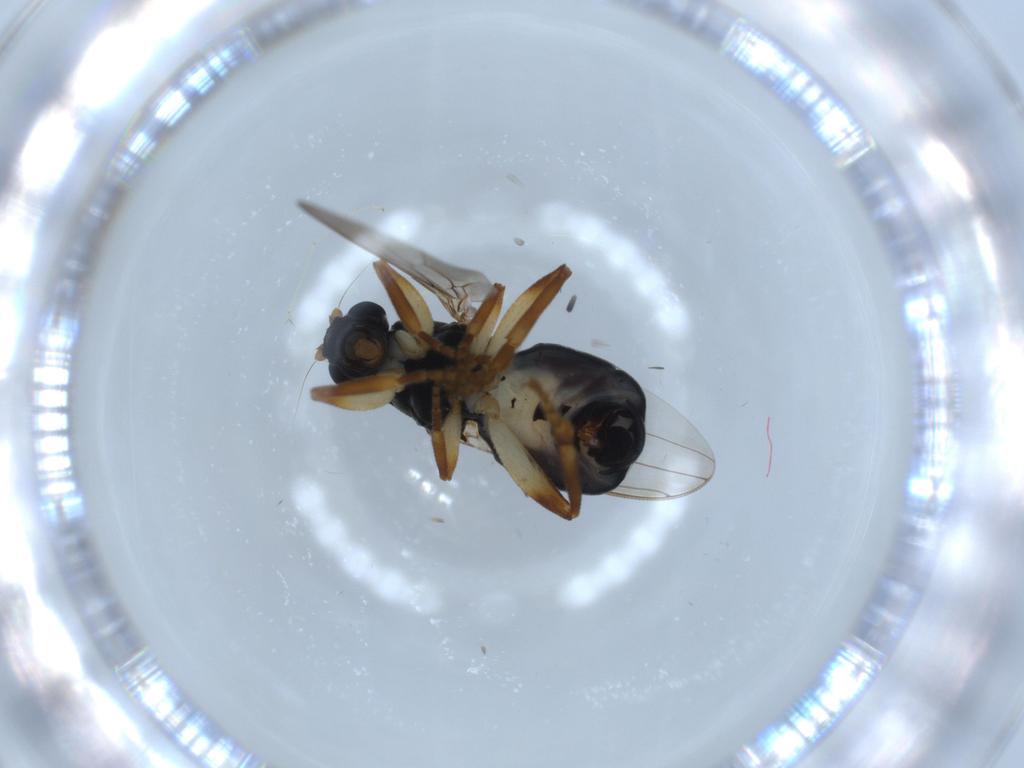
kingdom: Animalia
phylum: Arthropoda
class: Insecta
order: Diptera
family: Sphaeroceridae
